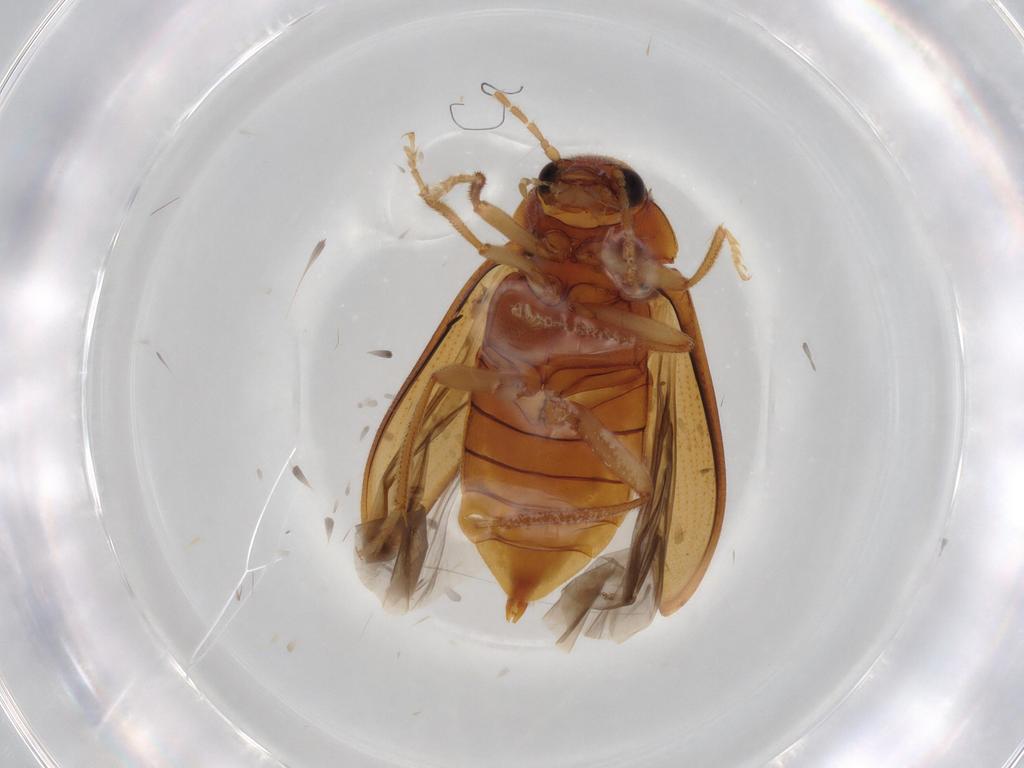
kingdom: Animalia
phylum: Arthropoda
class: Insecta
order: Coleoptera
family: Ptilodactylidae
